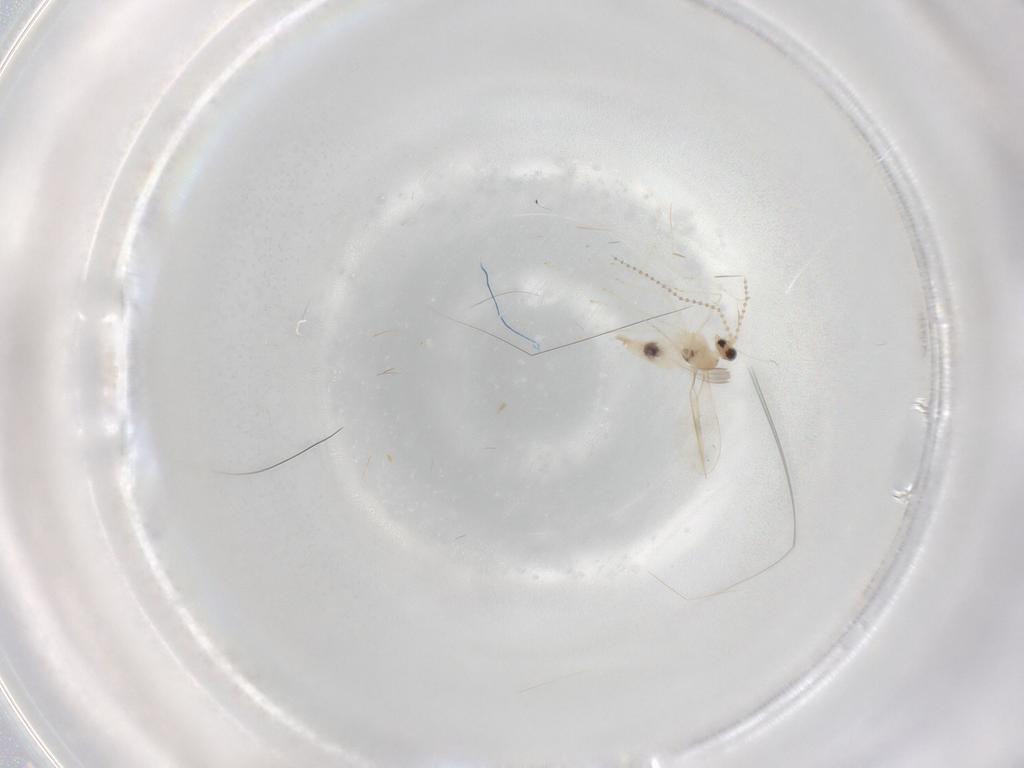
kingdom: Animalia
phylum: Arthropoda
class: Insecta
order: Diptera
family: Cecidomyiidae
